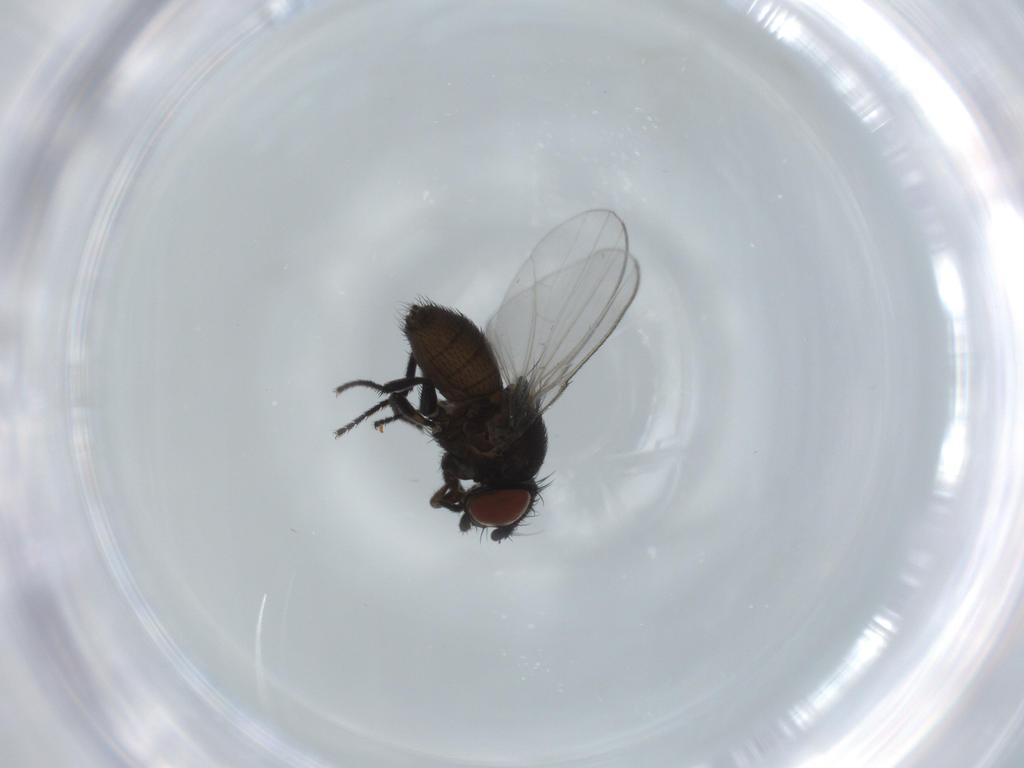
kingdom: Animalia
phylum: Arthropoda
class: Insecta
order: Diptera
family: Milichiidae
